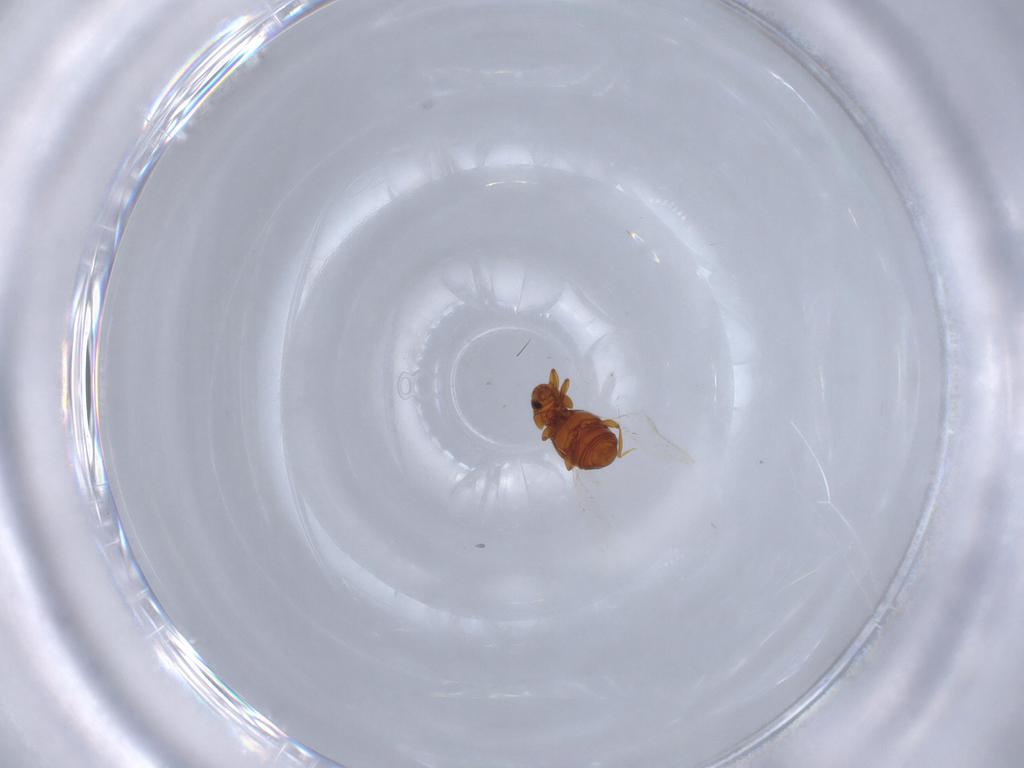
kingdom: Animalia
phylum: Arthropoda
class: Insecta
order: Coleoptera
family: Staphylinidae
